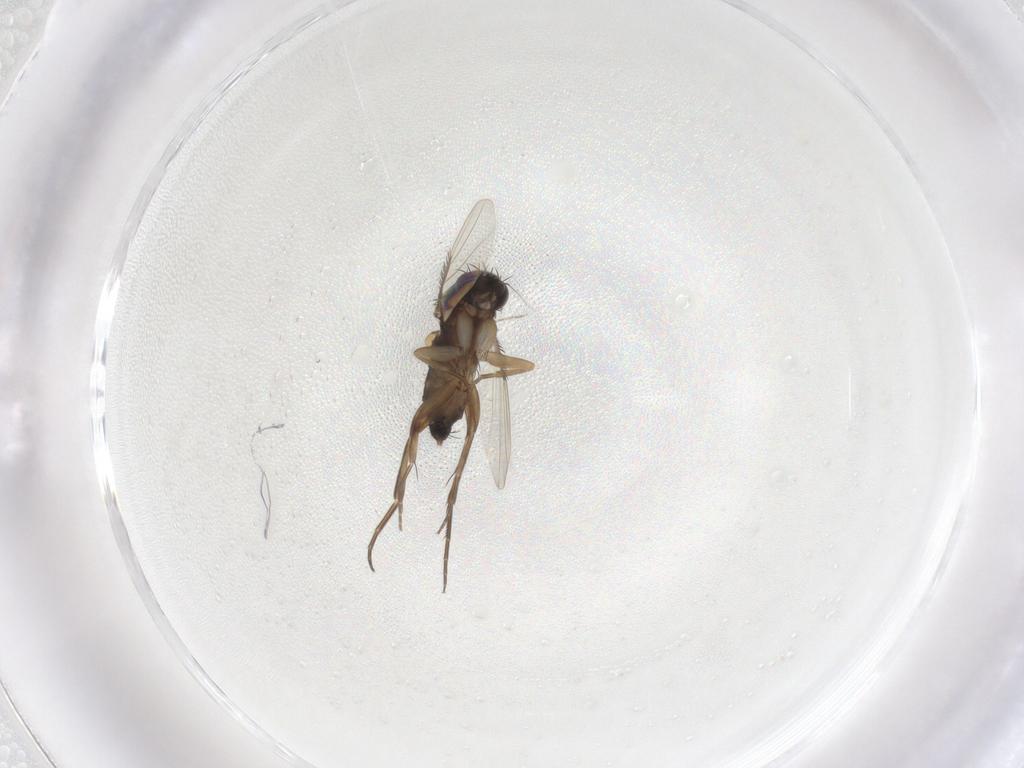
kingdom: Animalia
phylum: Arthropoda
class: Insecta
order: Diptera
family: Phoridae
